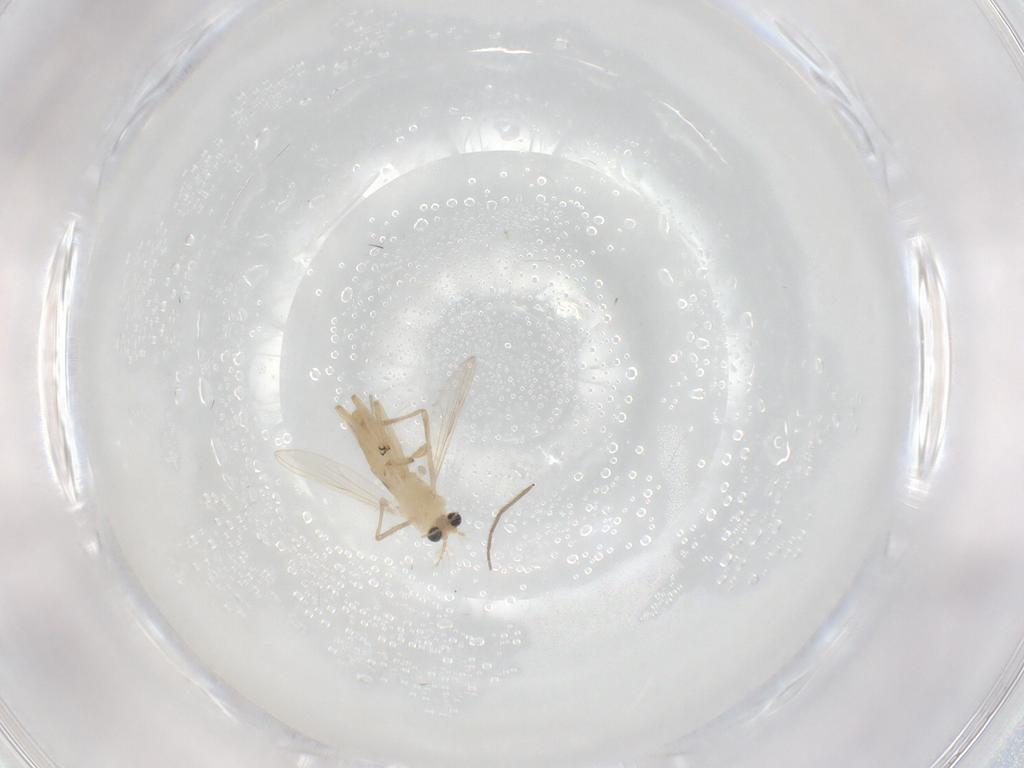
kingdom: Animalia
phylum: Arthropoda
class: Insecta
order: Diptera
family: Chironomidae
